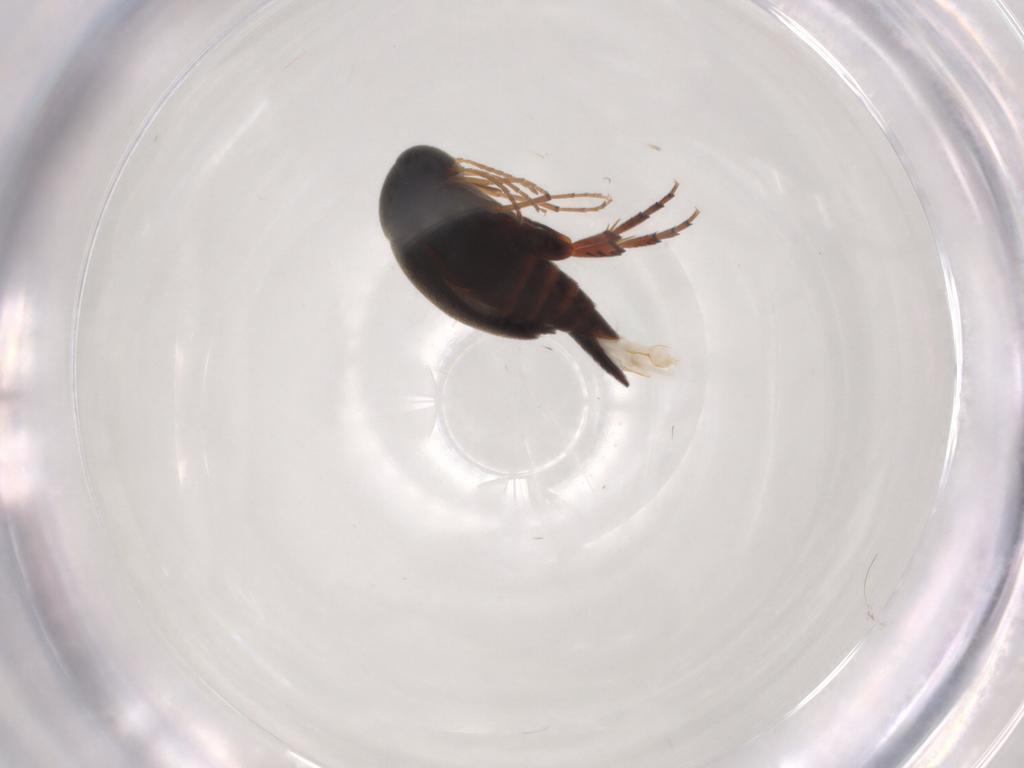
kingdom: Animalia
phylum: Arthropoda
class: Insecta
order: Coleoptera
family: Mordellidae
